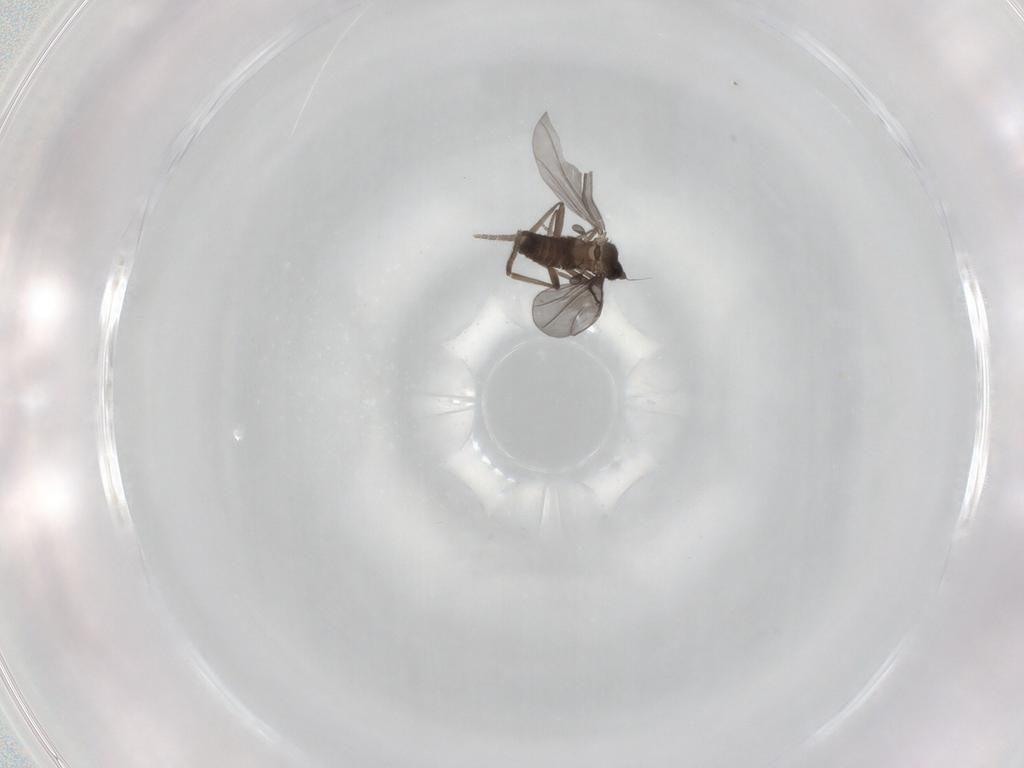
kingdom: Animalia
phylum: Arthropoda
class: Insecta
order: Diptera
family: Phoridae
